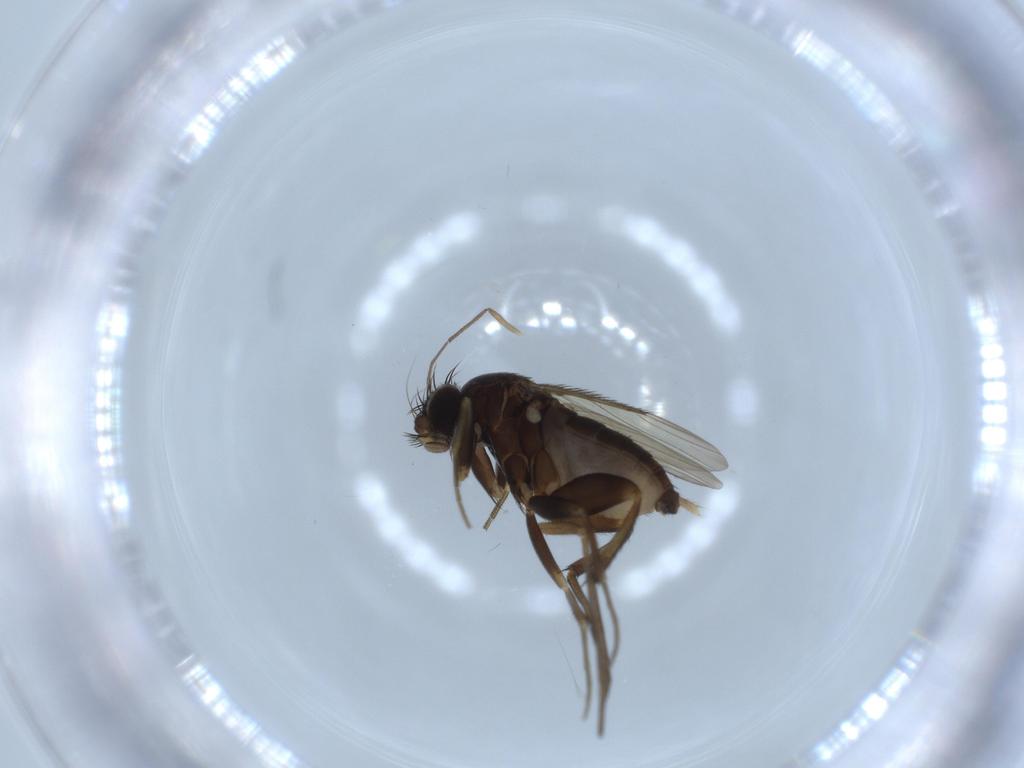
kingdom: Animalia
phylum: Arthropoda
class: Insecta
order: Diptera
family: Phoridae
